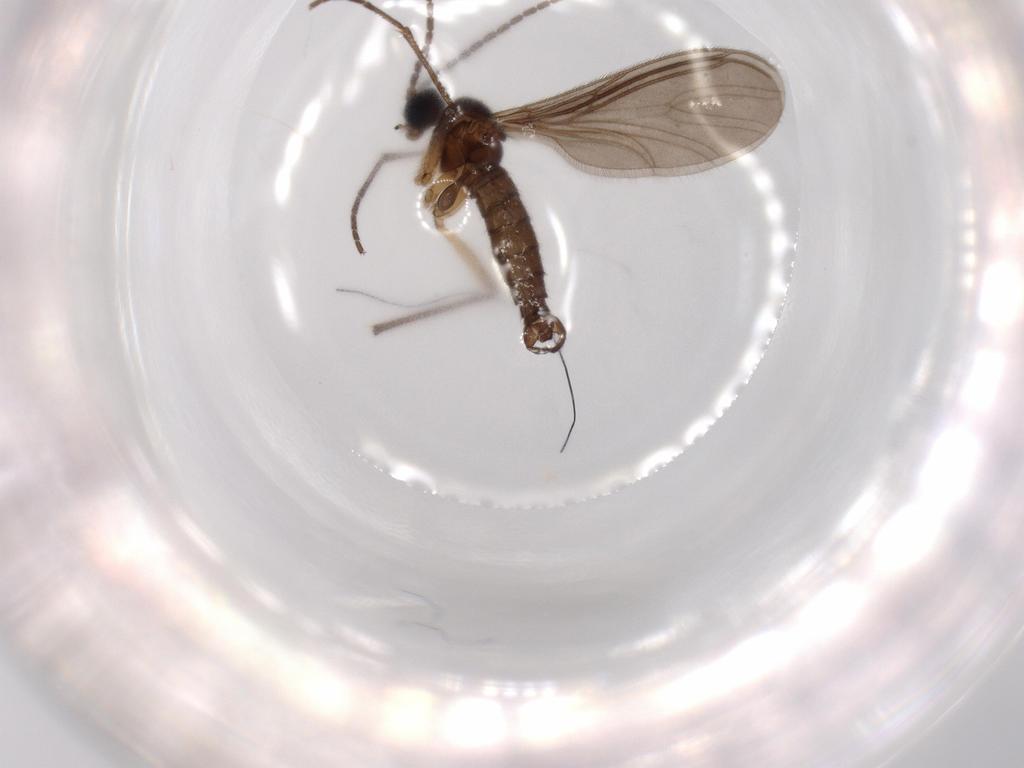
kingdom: Animalia
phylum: Arthropoda
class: Insecta
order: Diptera
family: Sciaridae
